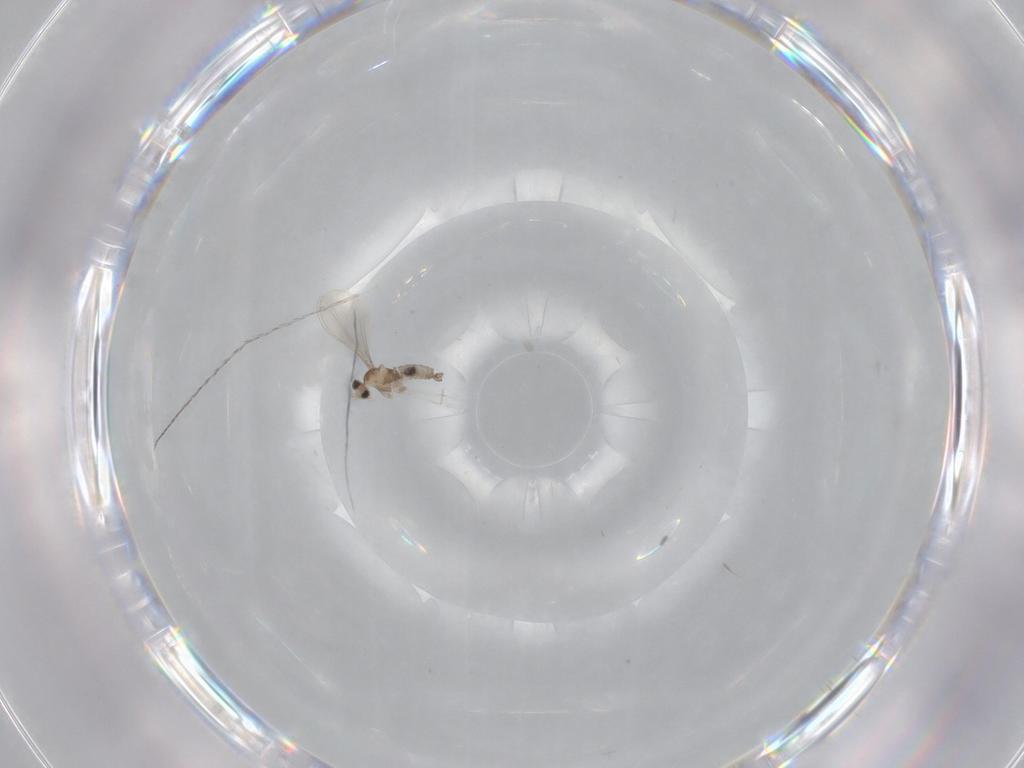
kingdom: Animalia
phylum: Arthropoda
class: Insecta
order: Diptera
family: Cecidomyiidae
